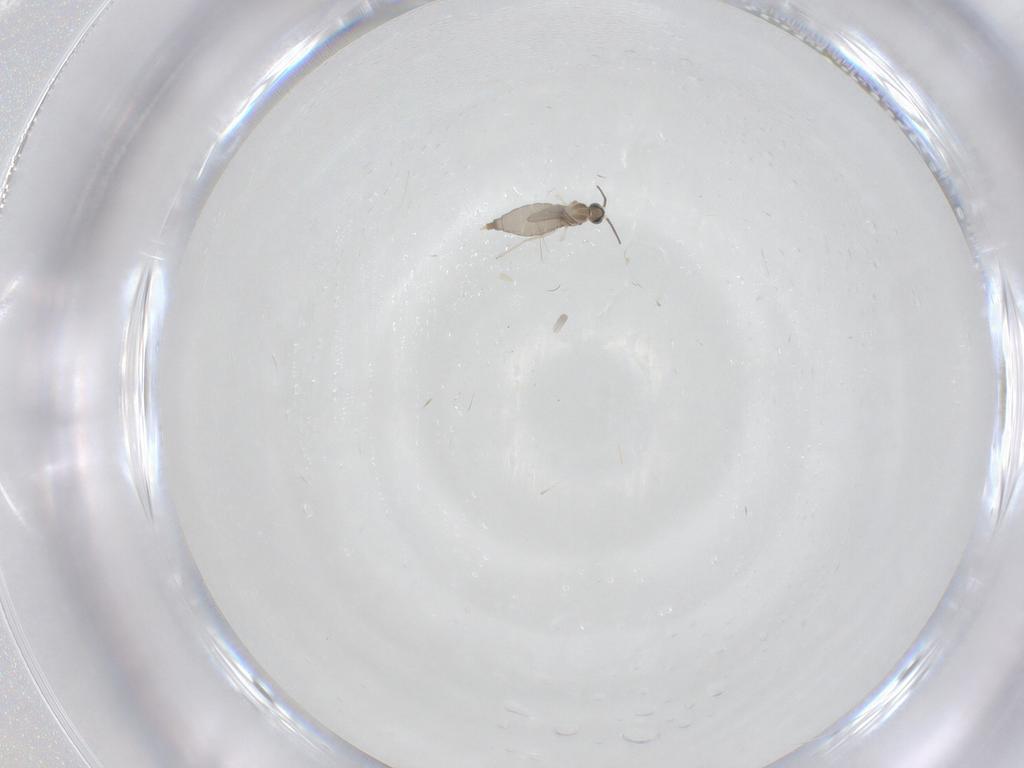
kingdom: Animalia
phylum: Arthropoda
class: Insecta
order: Diptera
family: Cecidomyiidae
